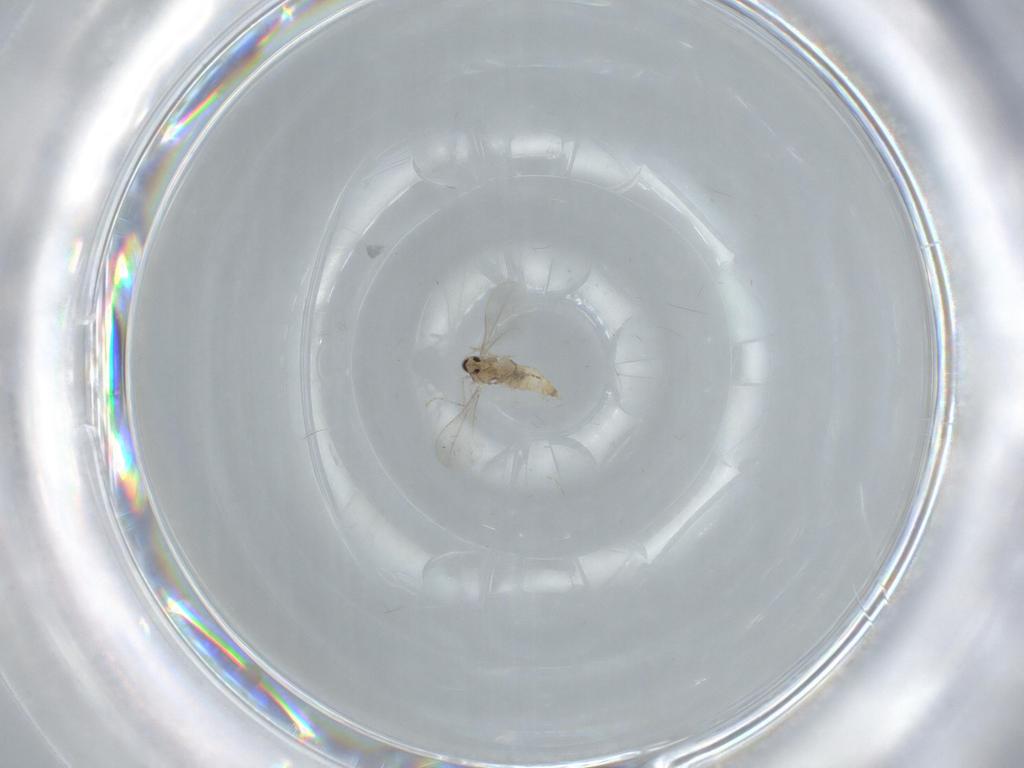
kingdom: Animalia
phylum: Arthropoda
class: Insecta
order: Diptera
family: Cecidomyiidae
